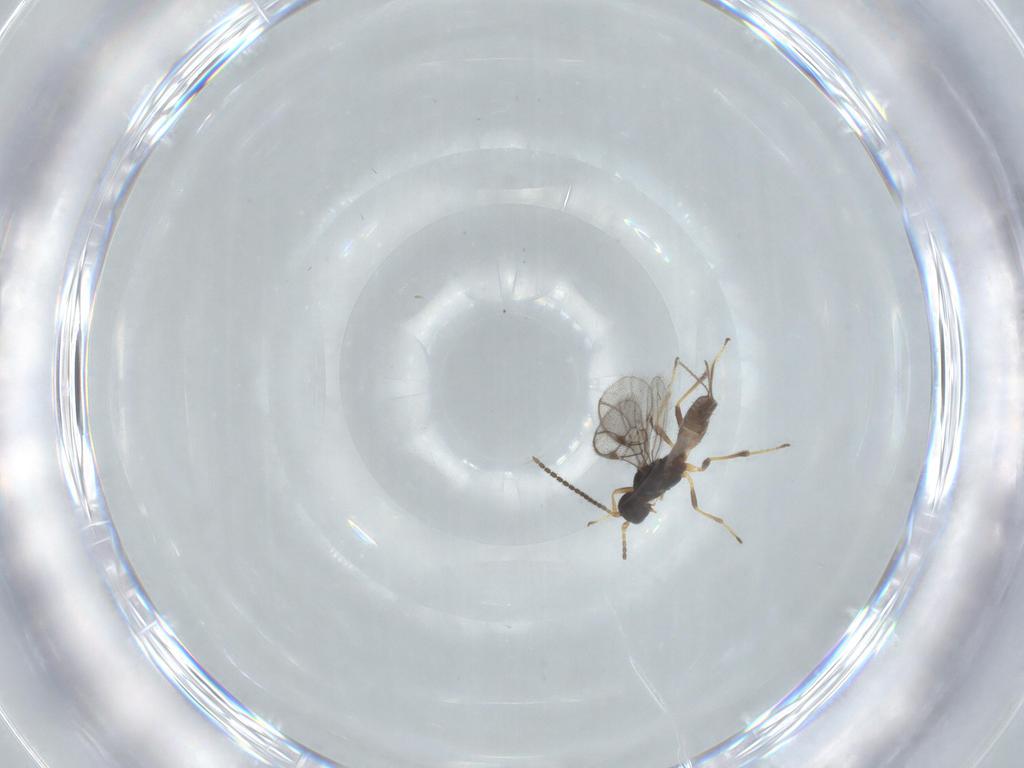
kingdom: Animalia
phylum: Arthropoda
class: Insecta
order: Hymenoptera
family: Braconidae
